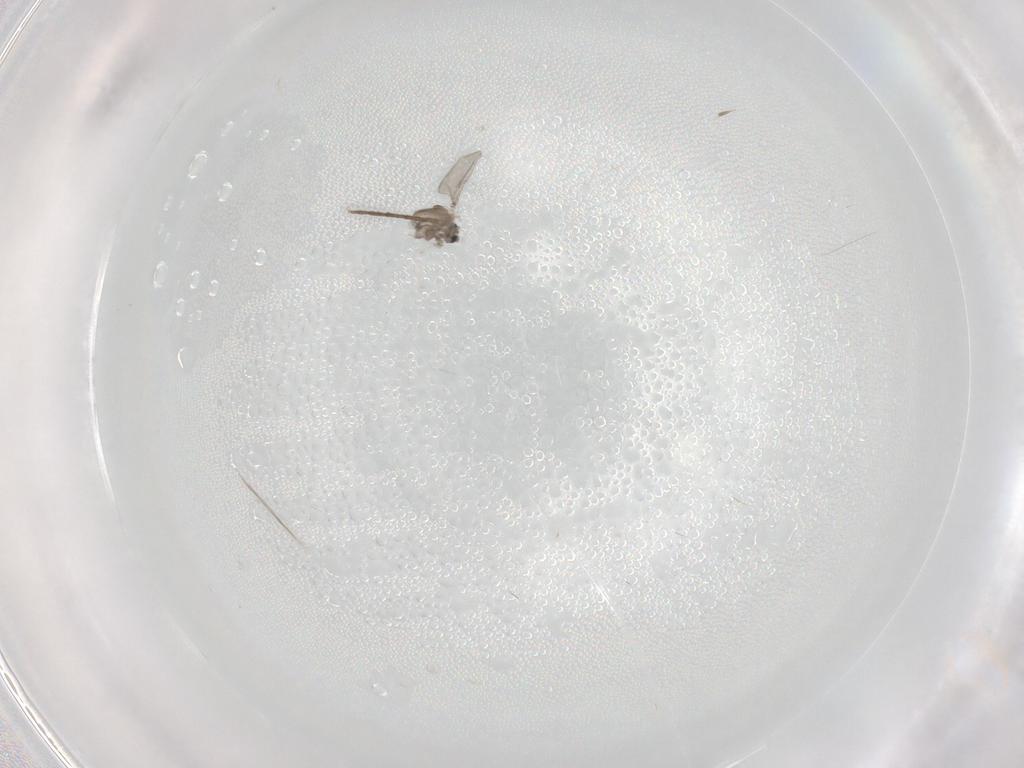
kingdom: Animalia
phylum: Arthropoda
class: Insecta
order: Diptera
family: Cecidomyiidae
